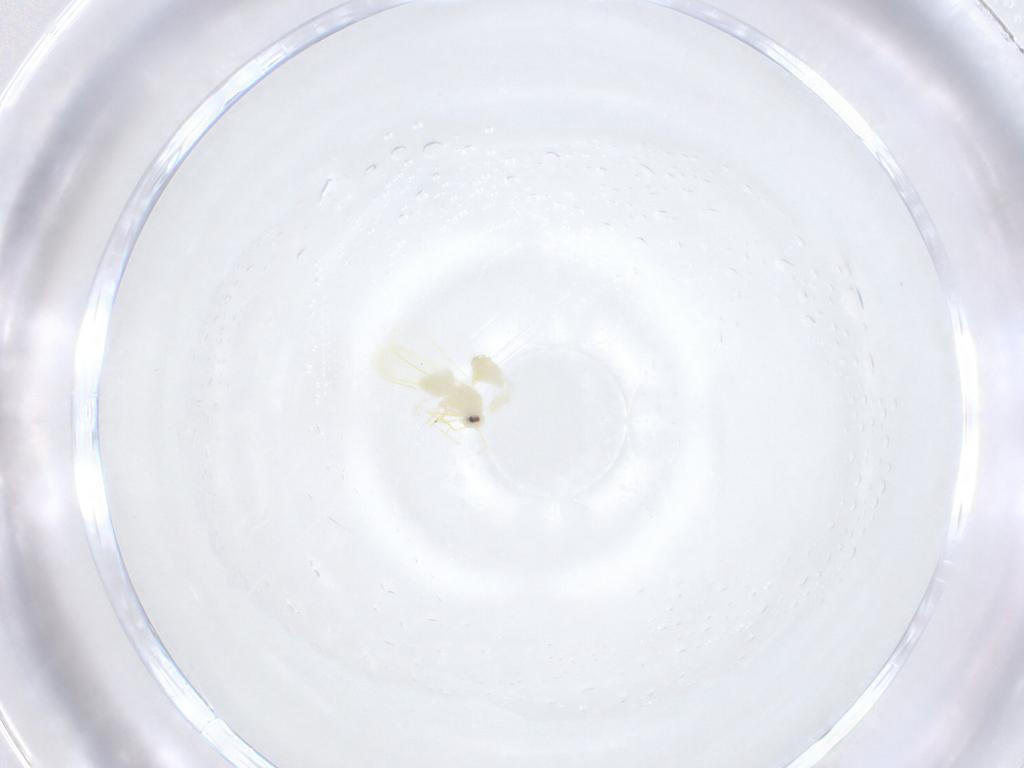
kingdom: Animalia
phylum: Arthropoda
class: Insecta
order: Hemiptera
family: Aleyrodidae
